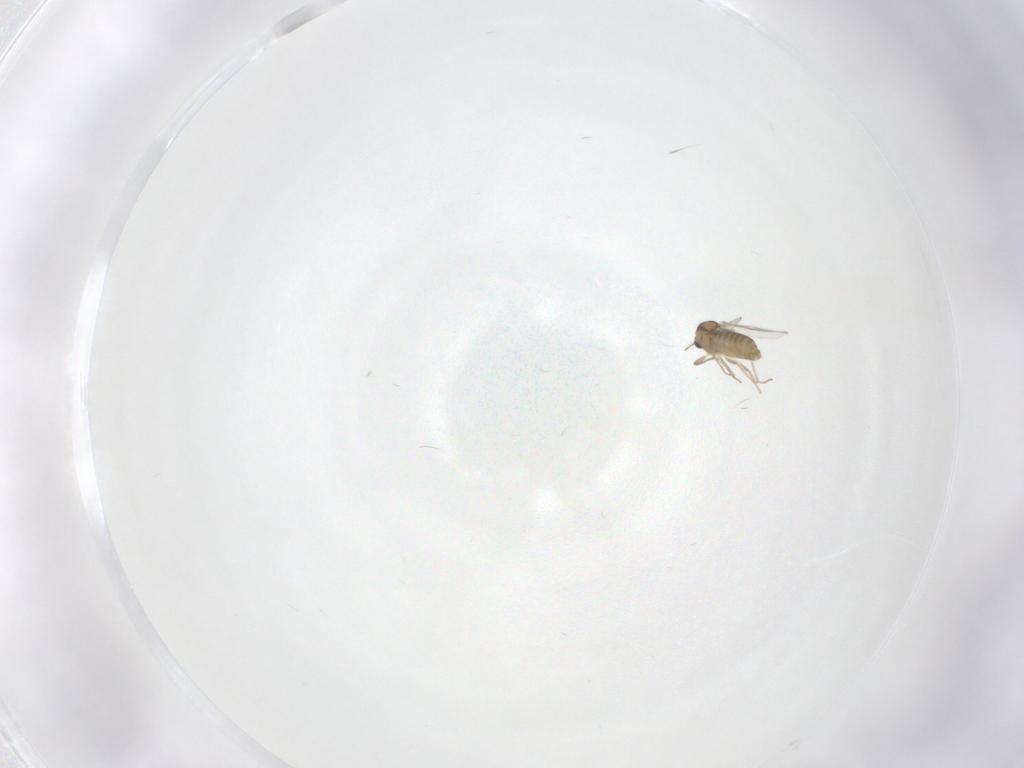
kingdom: Animalia
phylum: Arthropoda
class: Insecta
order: Diptera
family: Chironomidae
